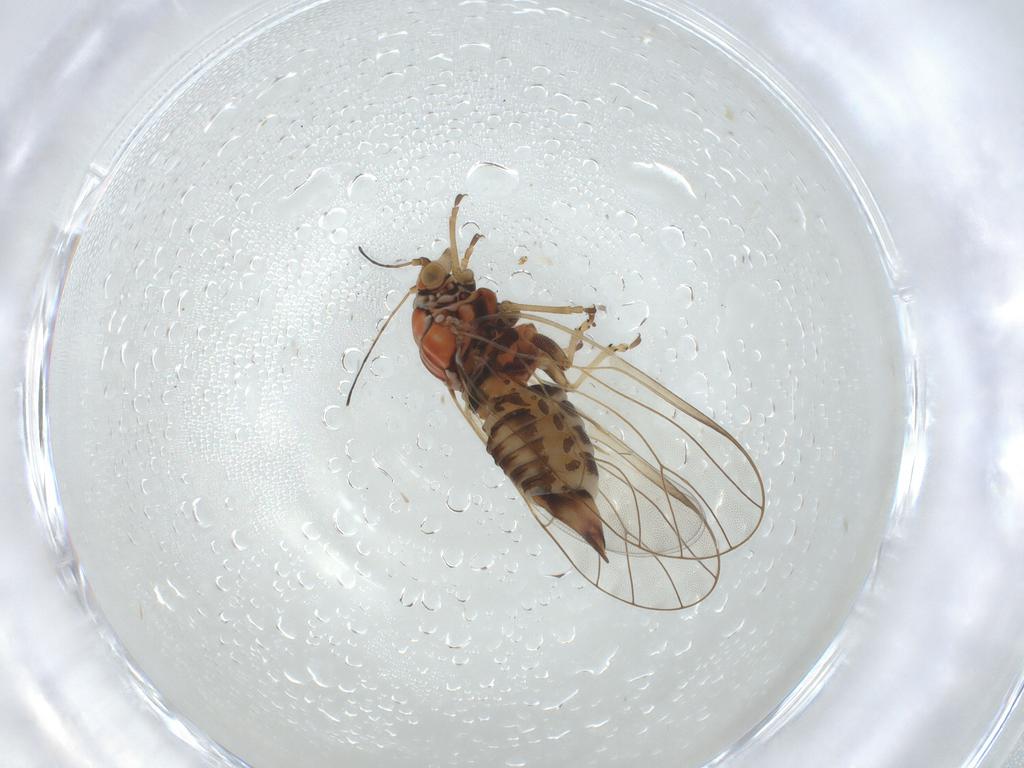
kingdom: Animalia
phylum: Arthropoda
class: Insecta
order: Hemiptera
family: Psyllidae
